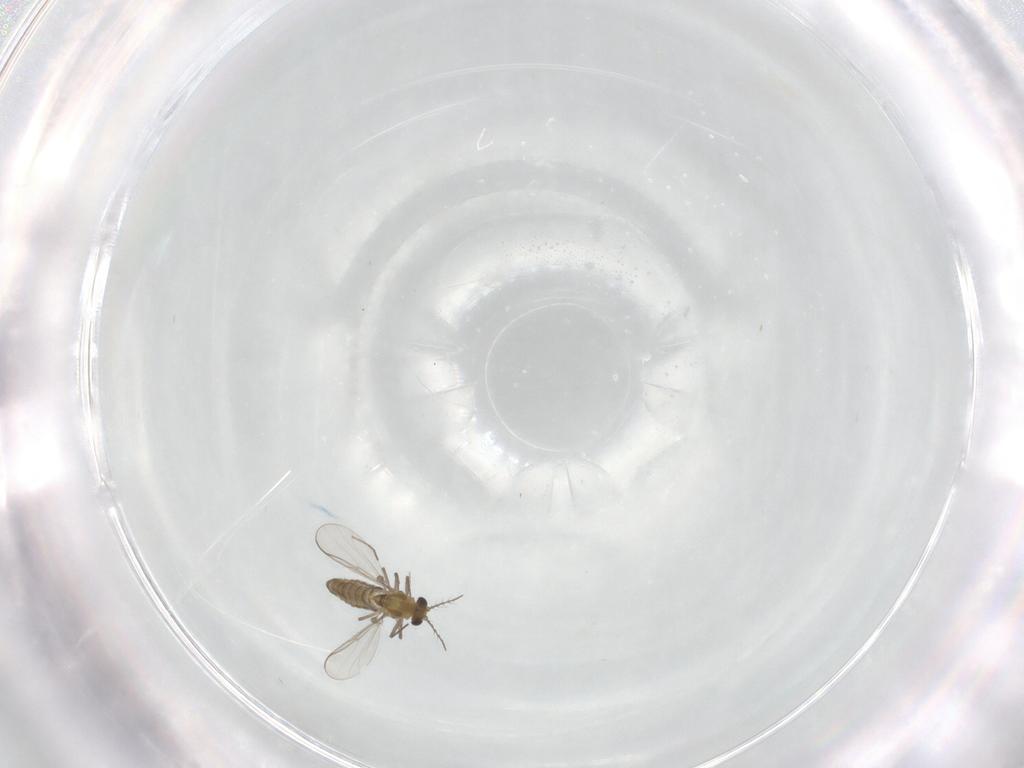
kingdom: Animalia
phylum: Arthropoda
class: Insecta
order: Diptera
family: Chironomidae
